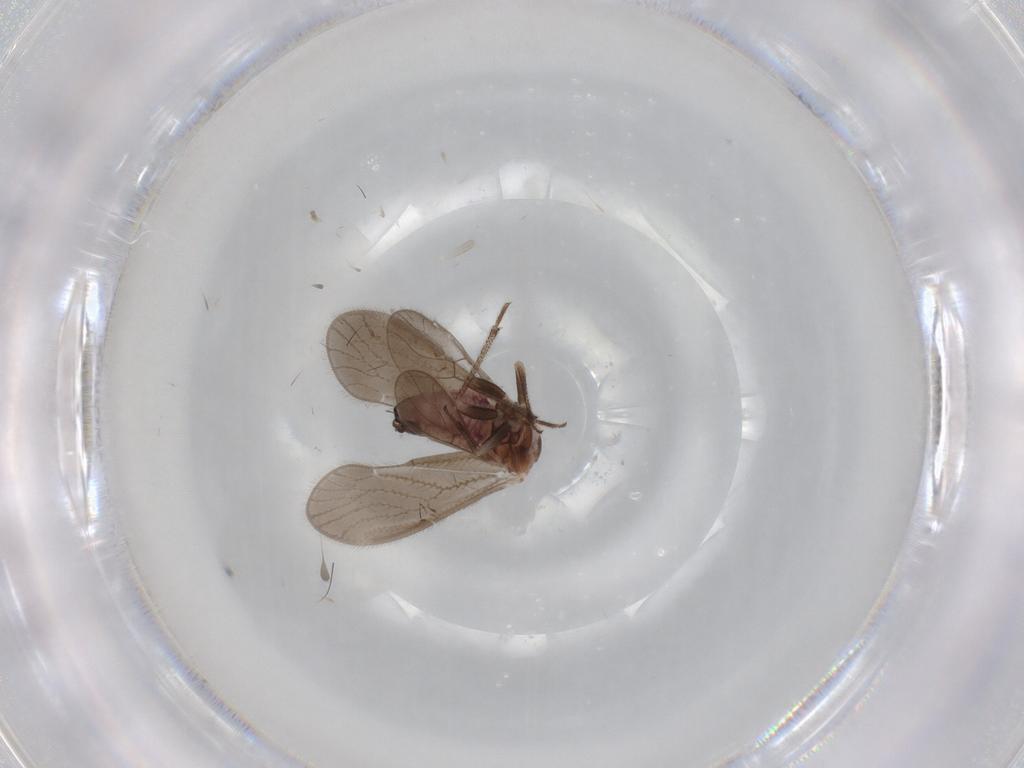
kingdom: Animalia
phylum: Arthropoda
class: Insecta
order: Psocodea
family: Pseudocaeciliidae
